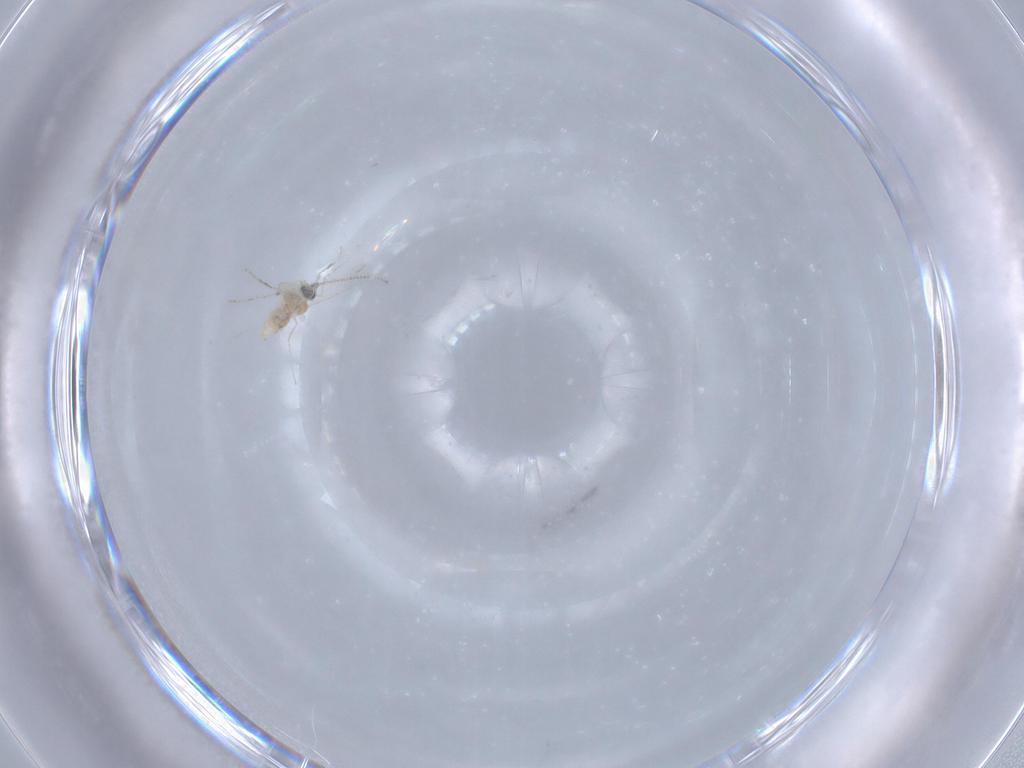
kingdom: Animalia
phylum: Arthropoda
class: Insecta
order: Diptera
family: Cecidomyiidae
